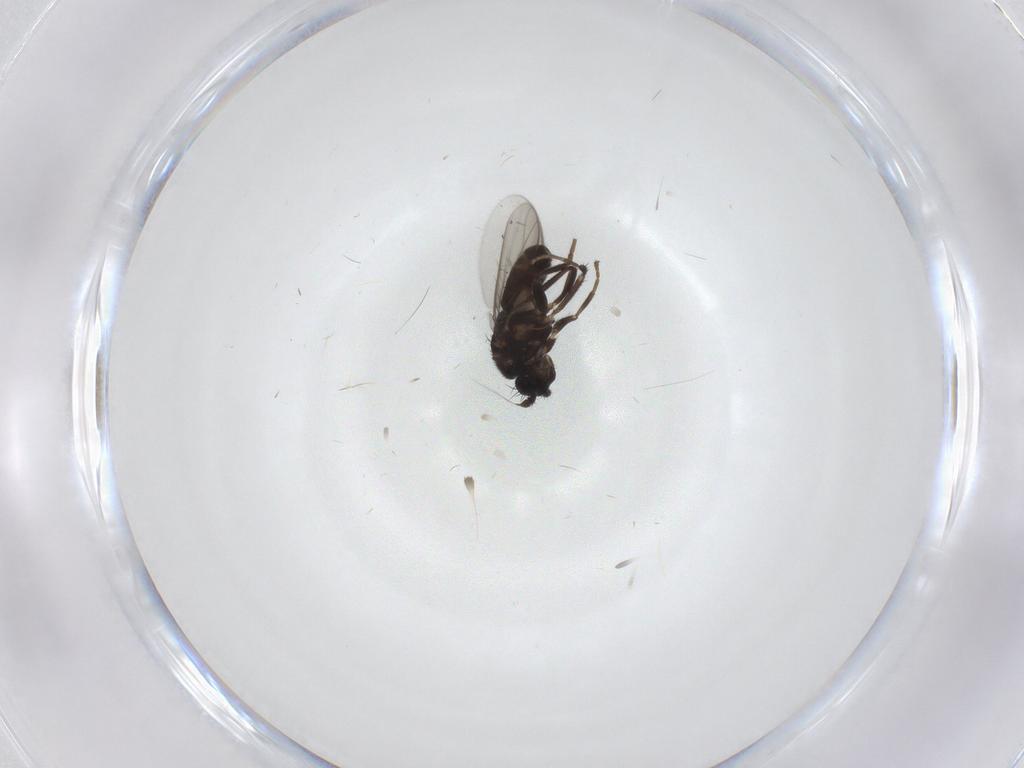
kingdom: Animalia
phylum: Arthropoda
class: Insecta
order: Diptera
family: Sphaeroceridae
